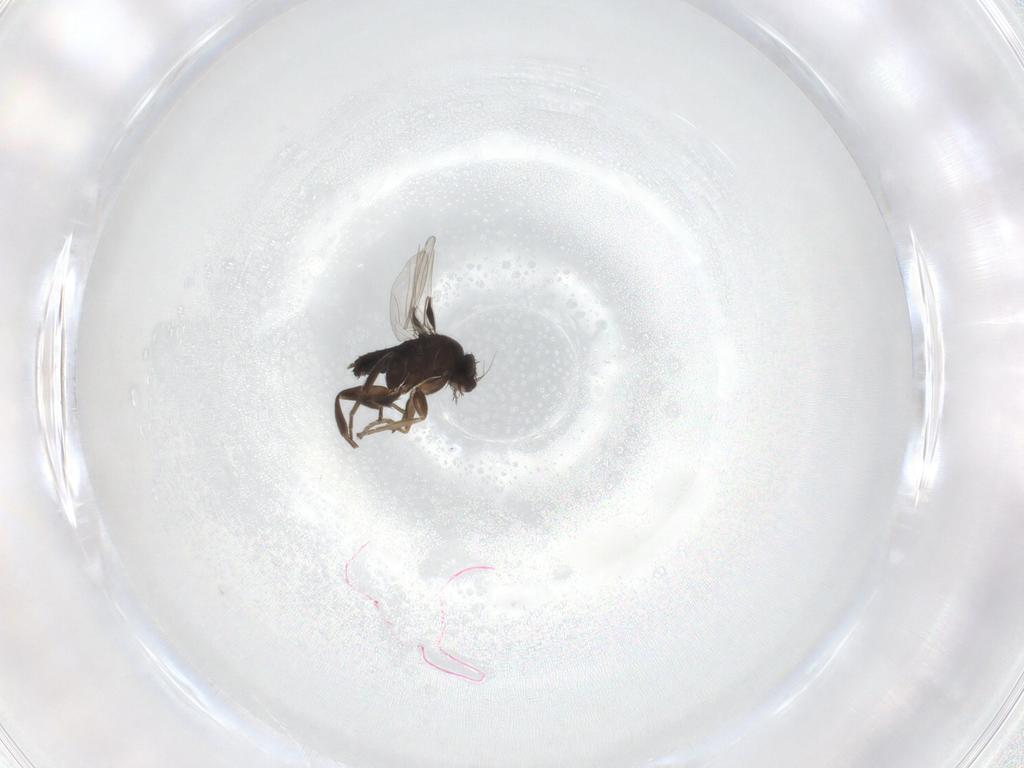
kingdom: Animalia
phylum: Arthropoda
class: Insecta
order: Diptera
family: Phoridae
